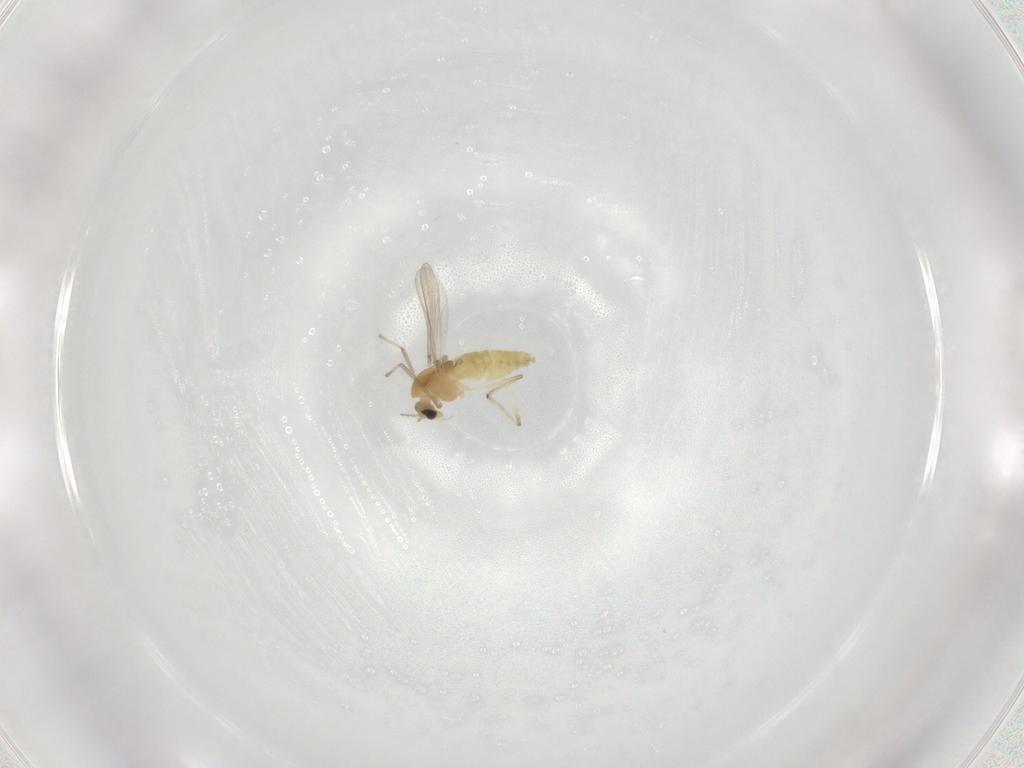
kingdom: Animalia
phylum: Arthropoda
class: Insecta
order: Diptera
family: Chironomidae
